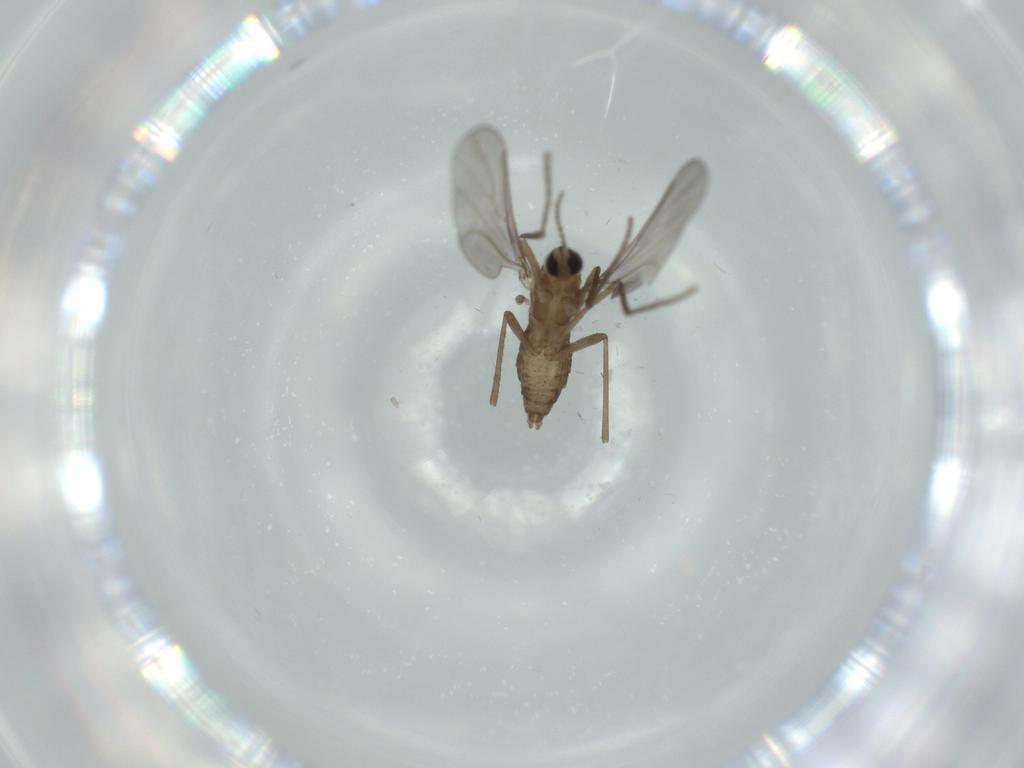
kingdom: Animalia
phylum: Arthropoda
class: Insecta
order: Diptera
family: Cecidomyiidae
